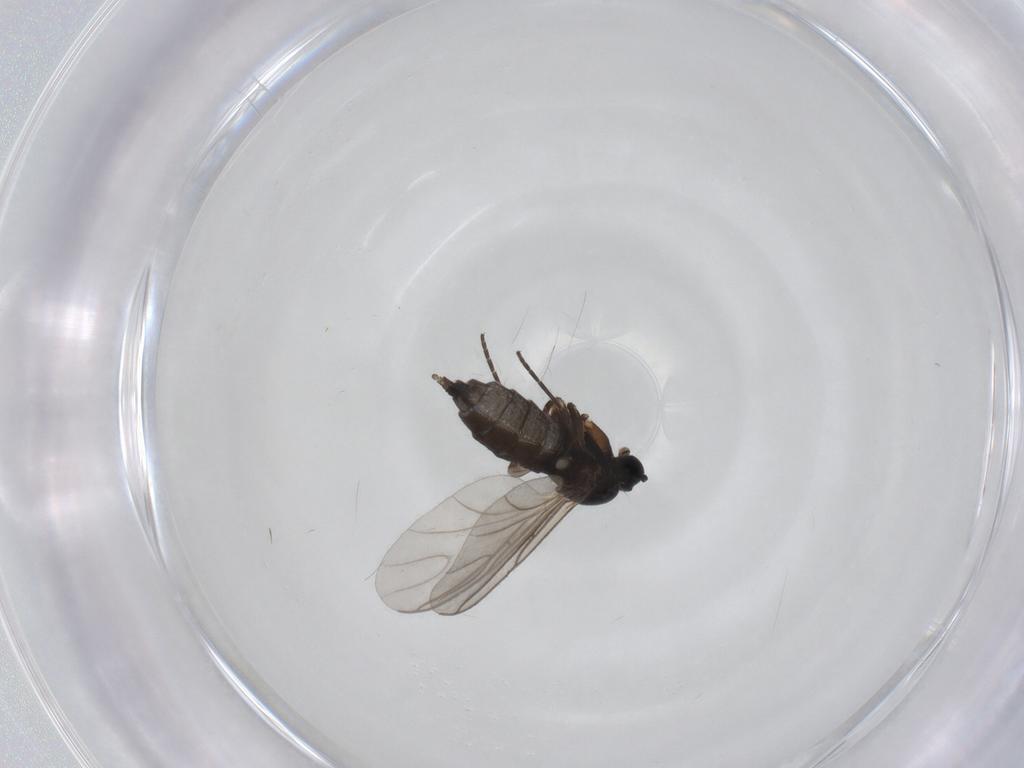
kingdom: Animalia
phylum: Arthropoda
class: Insecta
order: Diptera
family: Sciaridae
